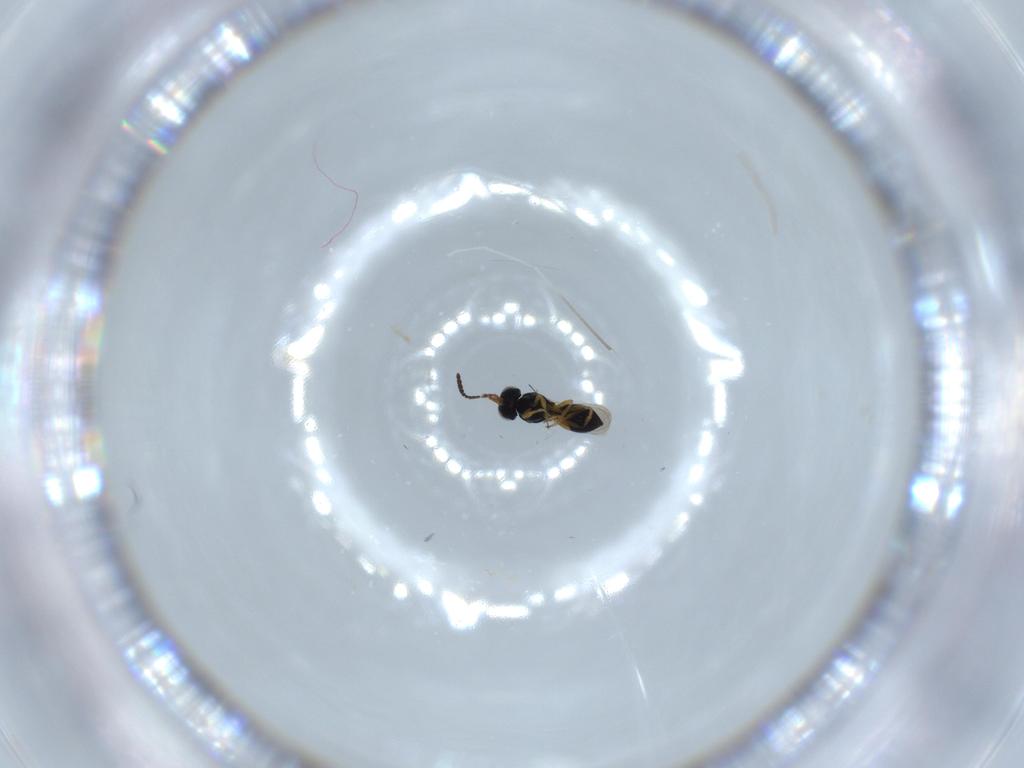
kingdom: Animalia
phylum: Arthropoda
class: Insecta
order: Hymenoptera
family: Scelionidae
